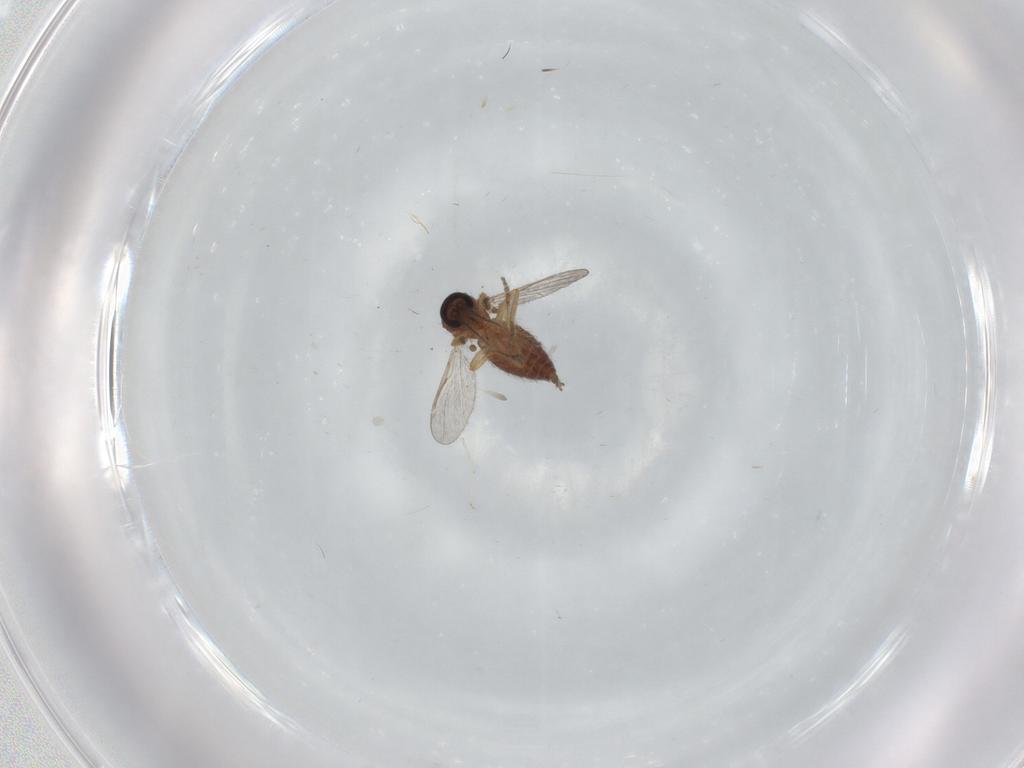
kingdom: Animalia
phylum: Arthropoda
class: Insecta
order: Diptera
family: Ceratopogonidae
